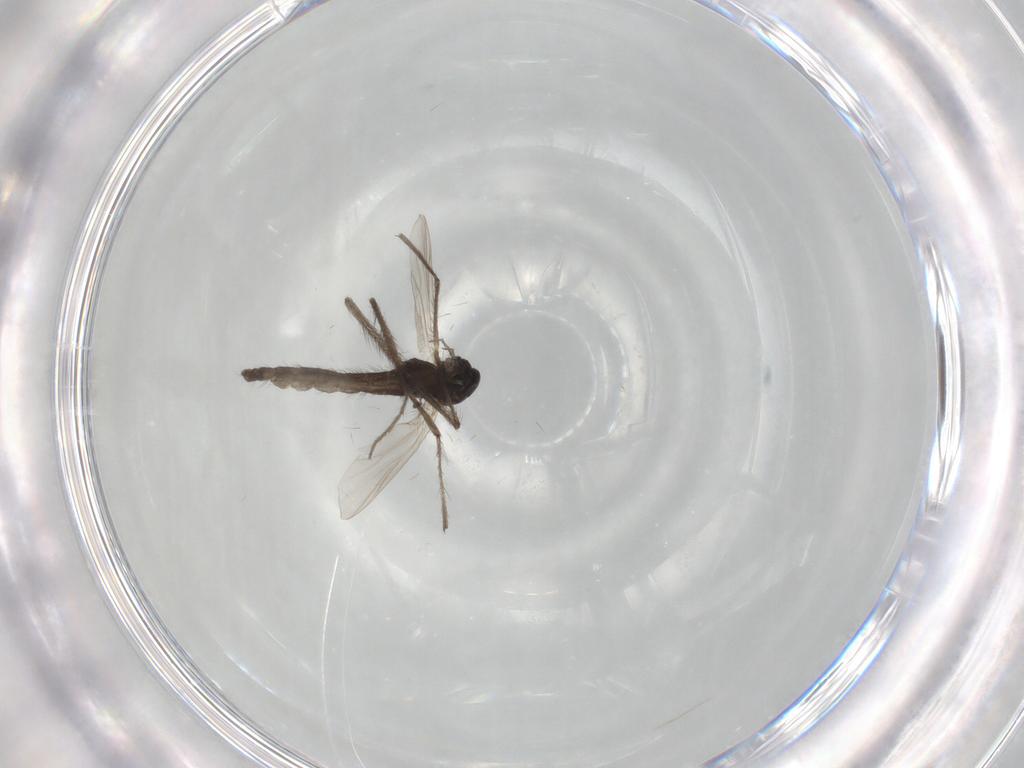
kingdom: Animalia
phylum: Arthropoda
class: Insecta
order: Diptera
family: Chironomidae
